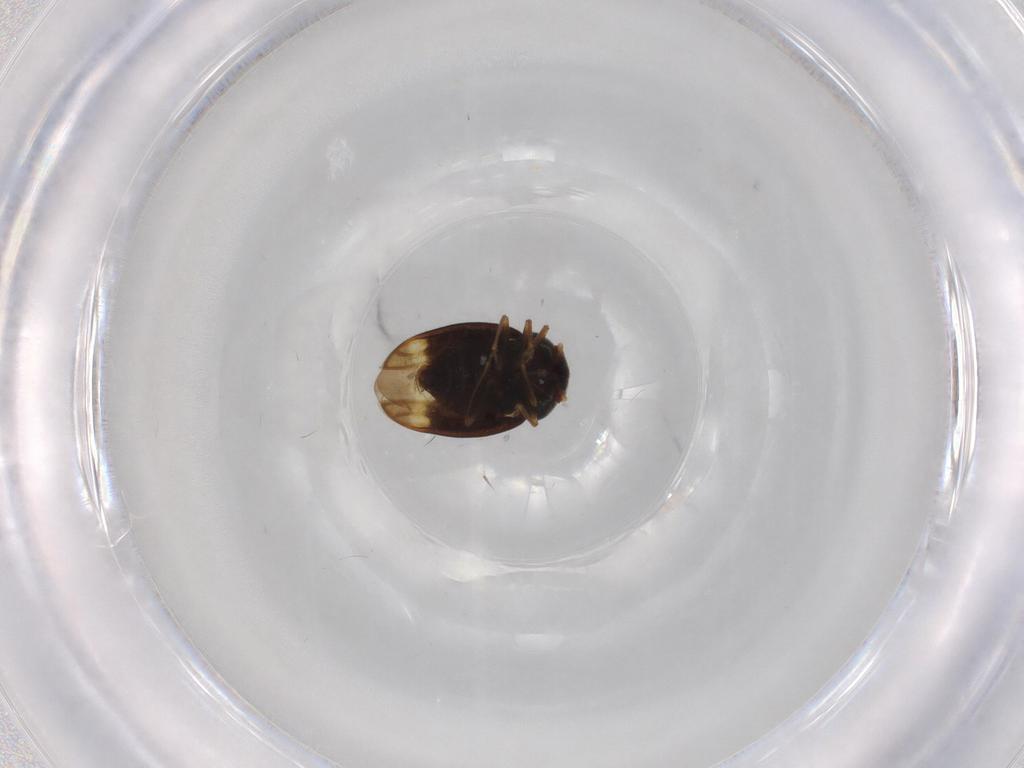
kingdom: Animalia
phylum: Arthropoda
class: Insecta
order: Hemiptera
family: Schizopteridae
